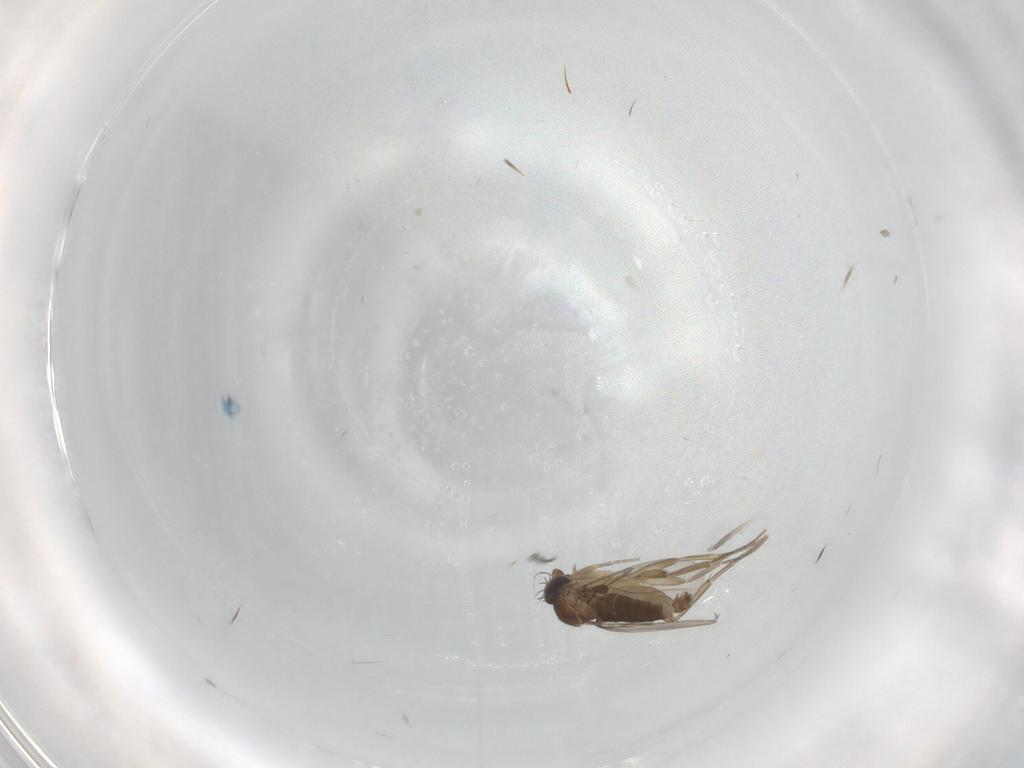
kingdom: Animalia
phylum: Arthropoda
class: Insecta
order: Diptera
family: Phoridae
